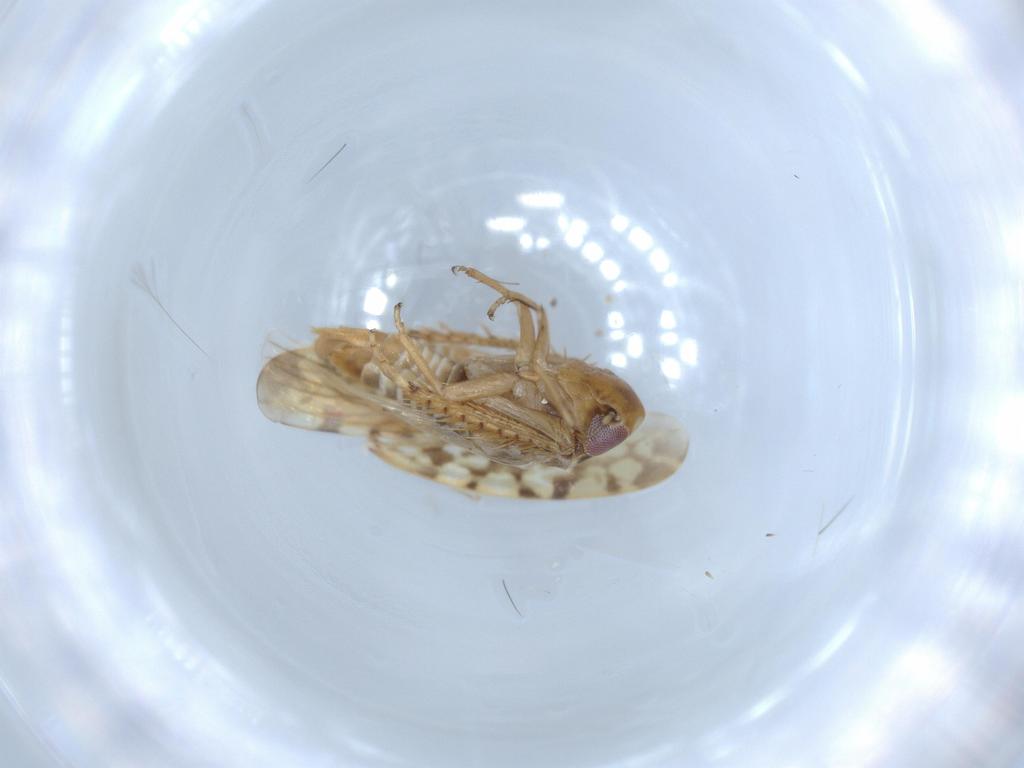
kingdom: Animalia
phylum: Arthropoda
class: Insecta
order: Hemiptera
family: Cicadellidae
